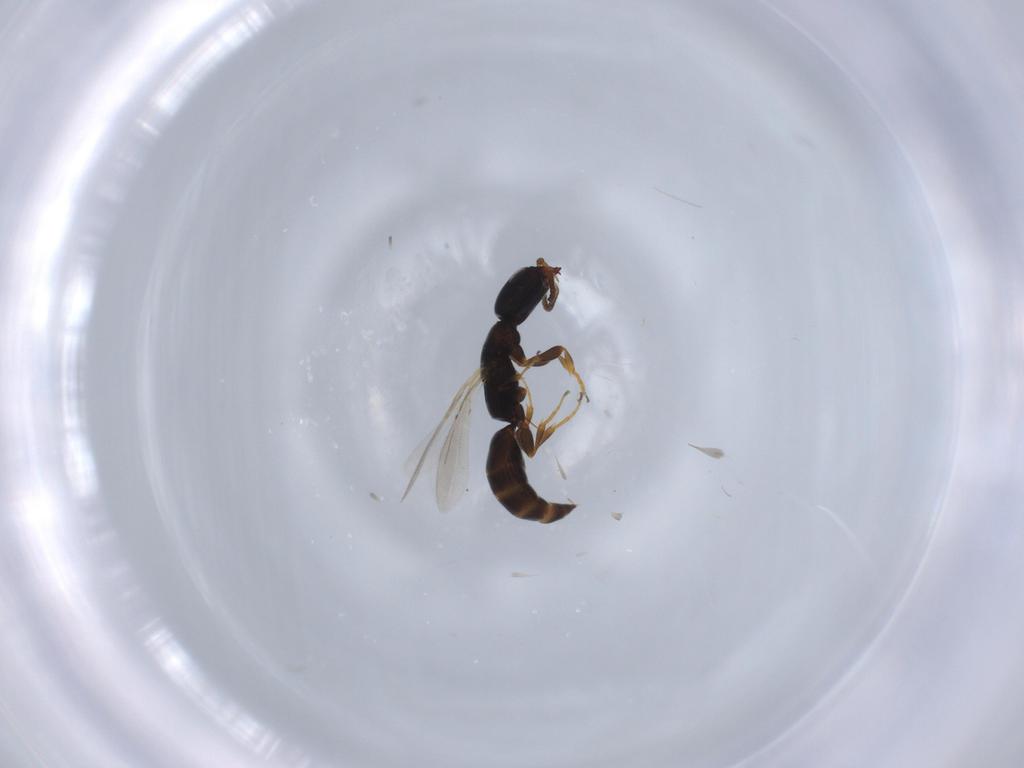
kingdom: Animalia
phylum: Arthropoda
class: Insecta
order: Hymenoptera
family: Bethylidae
